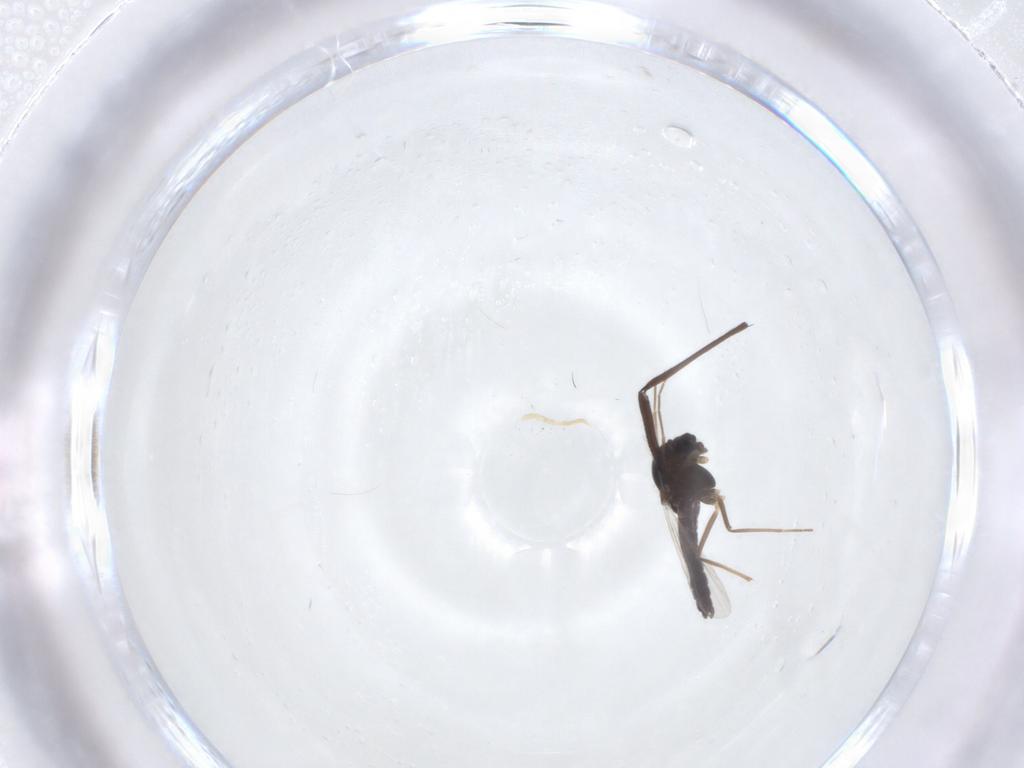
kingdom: Animalia
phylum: Arthropoda
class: Insecta
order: Diptera
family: Chironomidae
